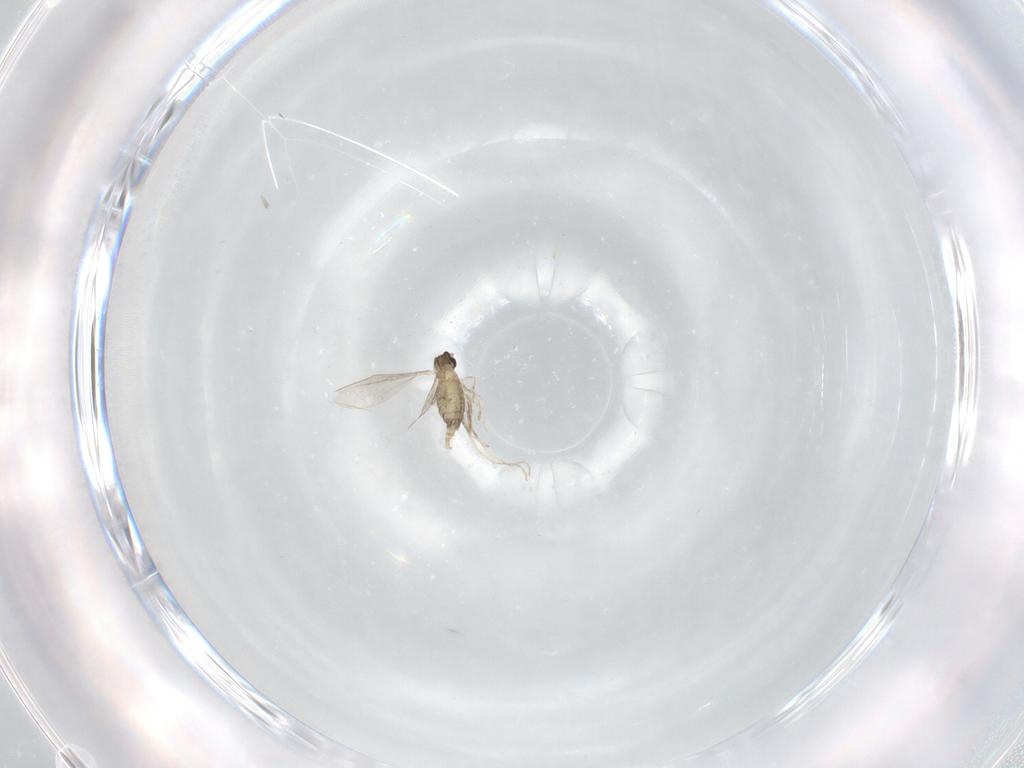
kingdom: Animalia
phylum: Arthropoda
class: Insecta
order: Diptera
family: Cecidomyiidae
